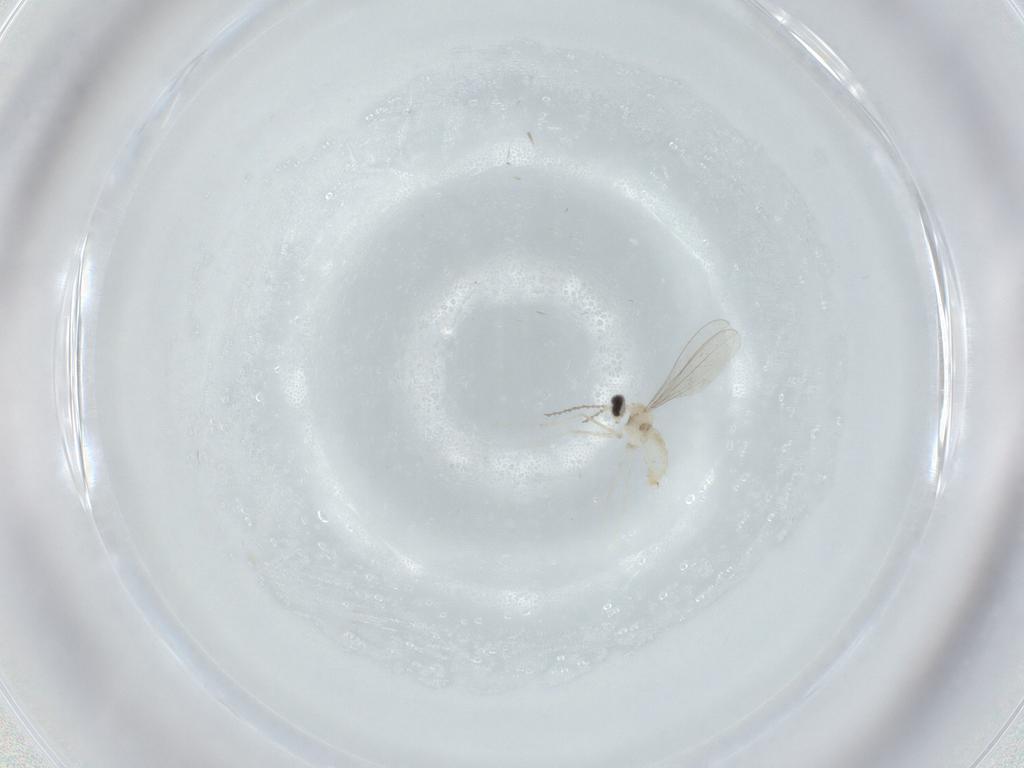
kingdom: Animalia
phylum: Arthropoda
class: Insecta
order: Diptera
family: Cecidomyiidae
